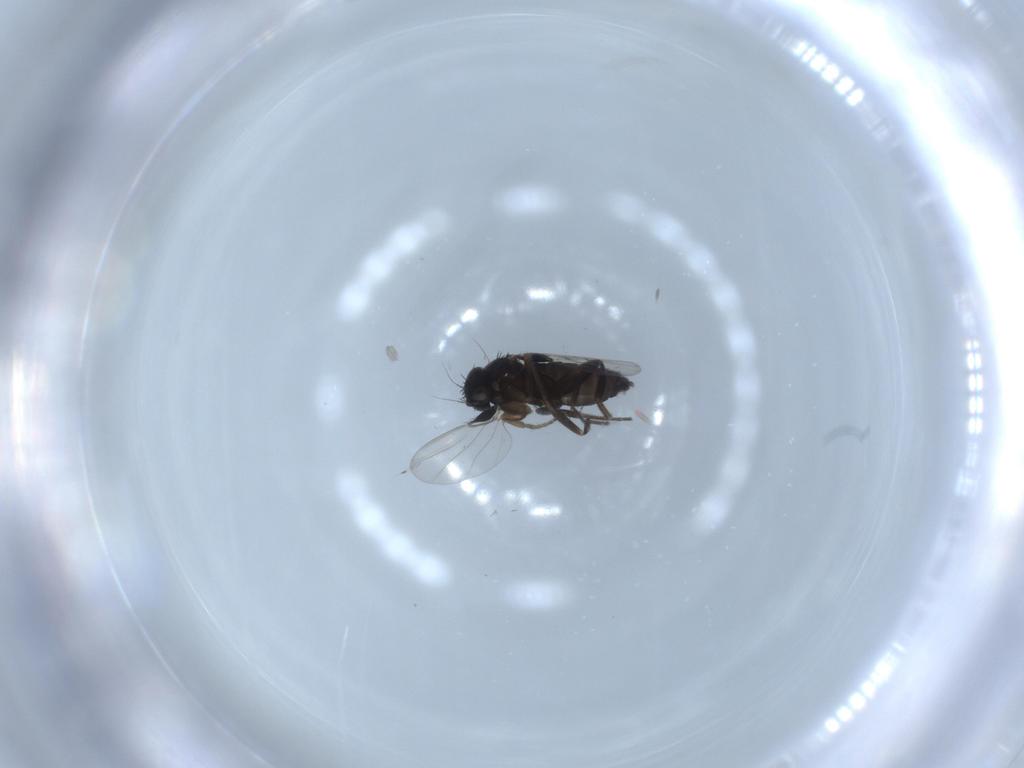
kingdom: Animalia
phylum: Arthropoda
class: Insecta
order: Diptera
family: Phoridae
